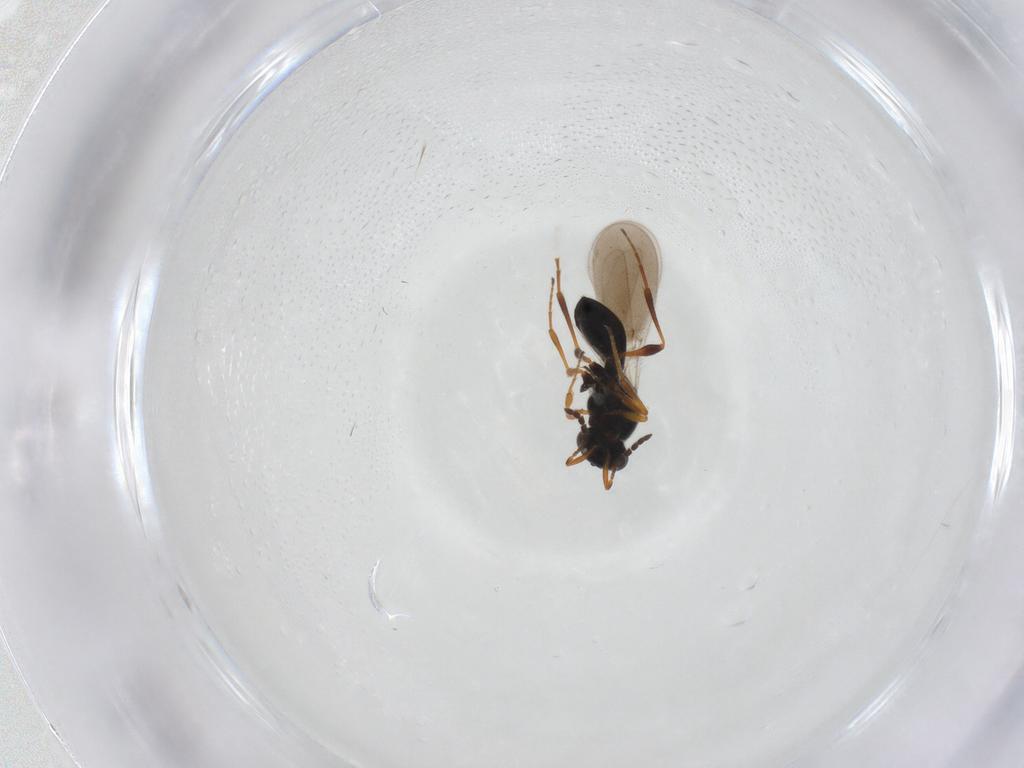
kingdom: Animalia
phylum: Arthropoda
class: Insecta
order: Hymenoptera
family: Platygastridae
